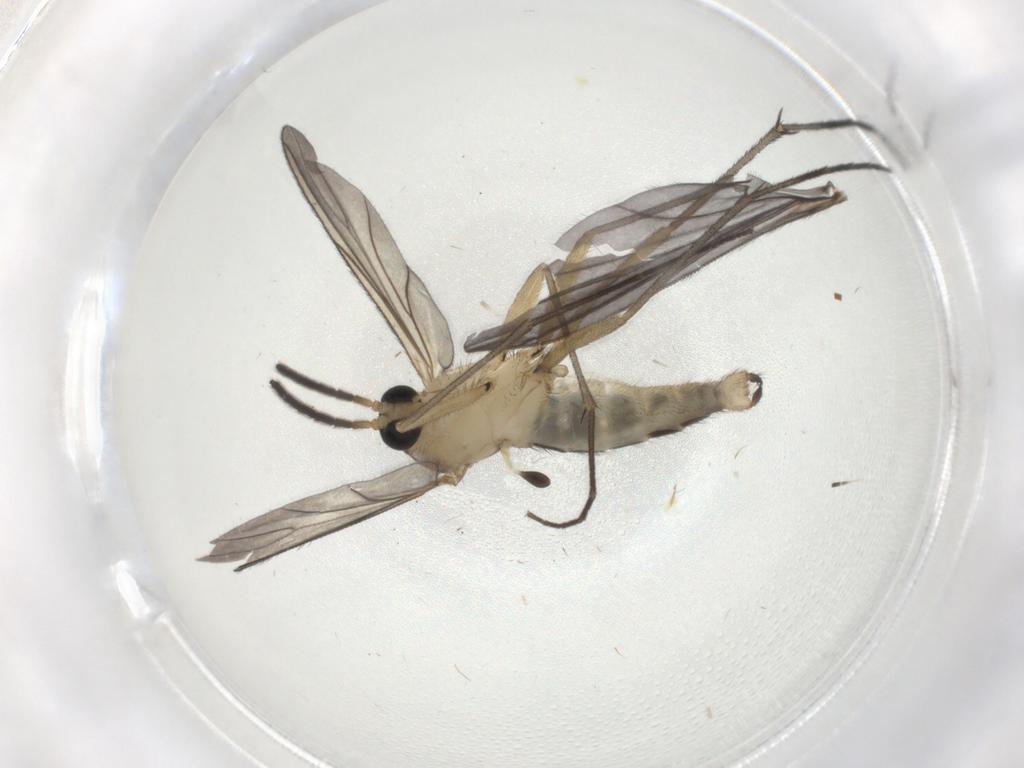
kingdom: Animalia
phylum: Arthropoda
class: Insecta
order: Diptera
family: Sciaridae
